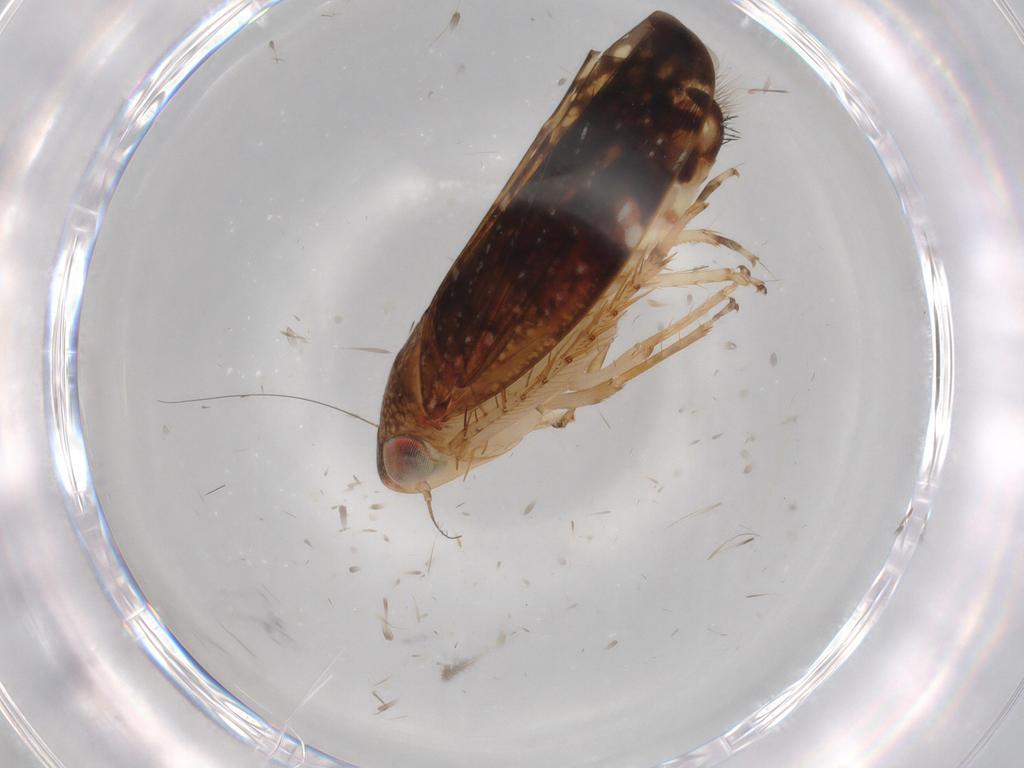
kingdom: Animalia
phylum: Arthropoda
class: Insecta
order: Hemiptera
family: Cicadellidae
